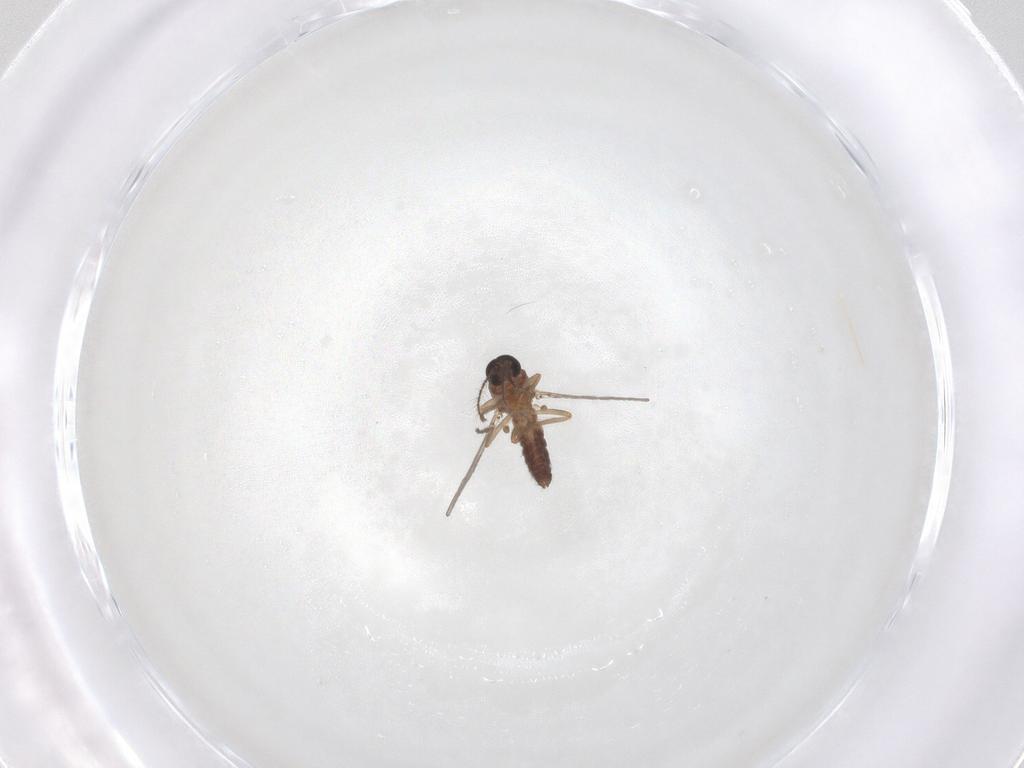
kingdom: Animalia
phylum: Arthropoda
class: Insecta
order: Diptera
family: Ceratopogonidae
